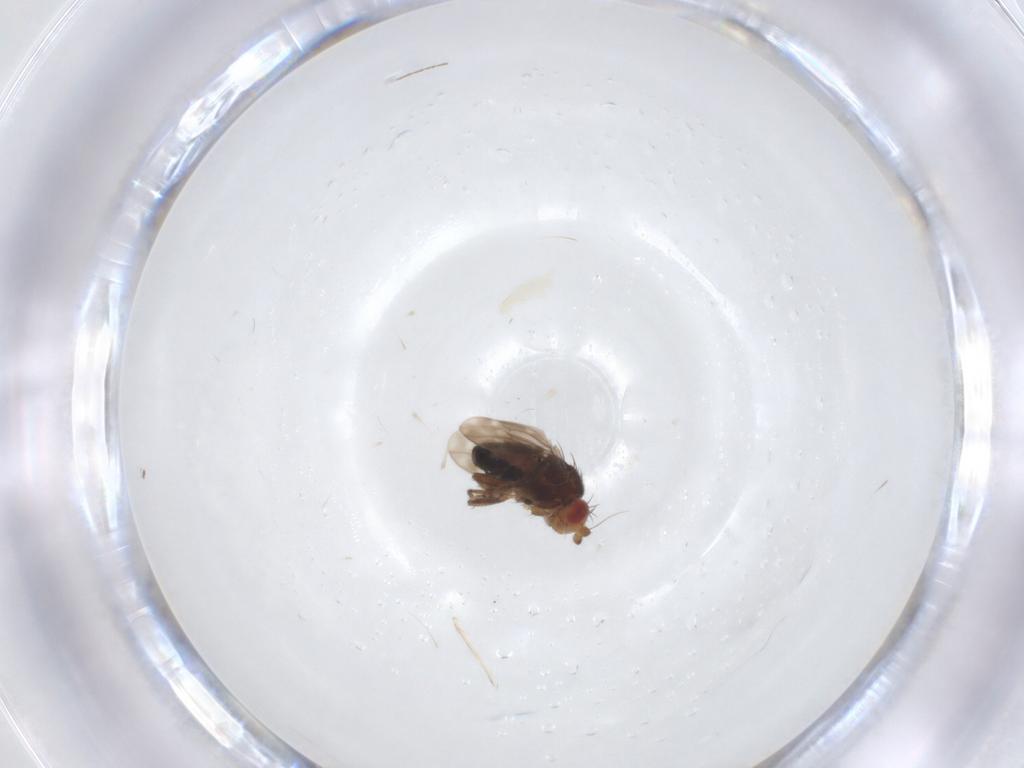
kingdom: Animalia
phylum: Arthropoda
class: Insecta
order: Diptera
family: Sphaeroceridae
